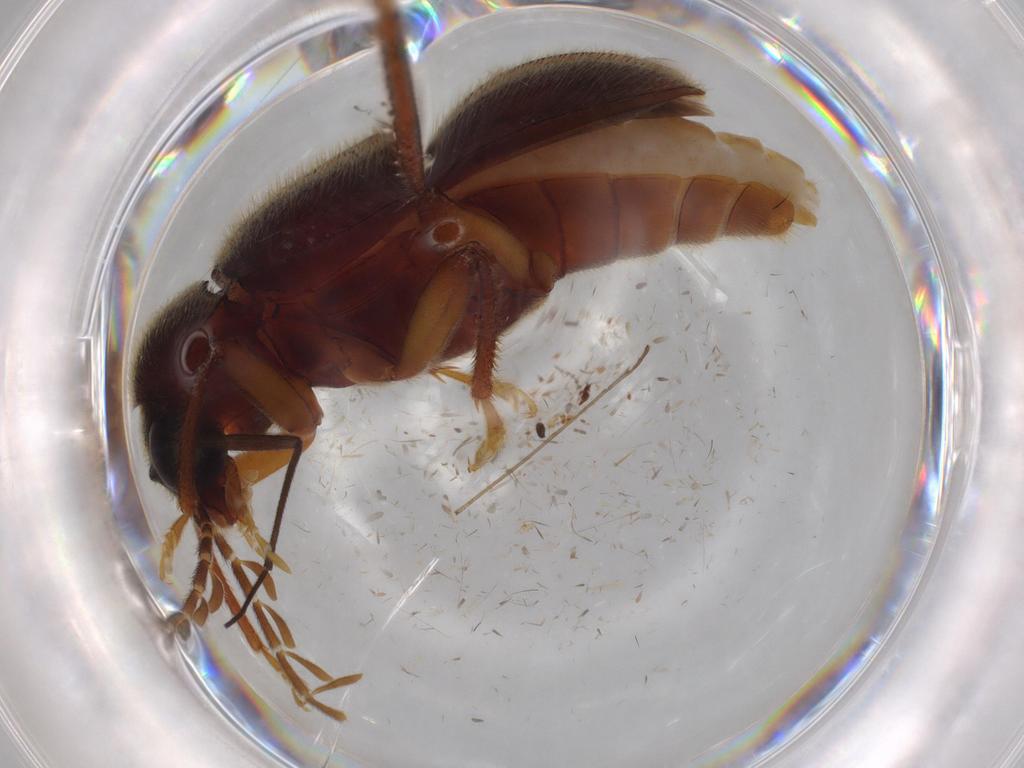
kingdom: Animalia
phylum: Arthropoda
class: Insecta
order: Coleoptera
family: Ptilodactylidae
